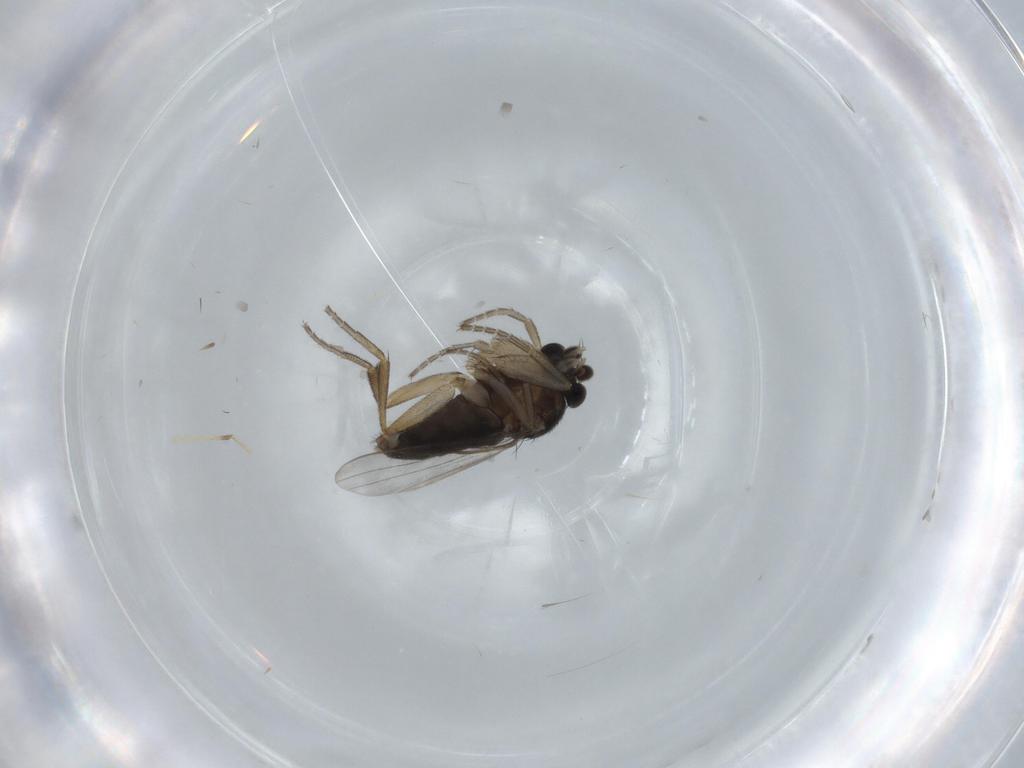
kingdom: Animalia
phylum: Arthropoda
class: Insecta
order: Diptera
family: Phoridae
